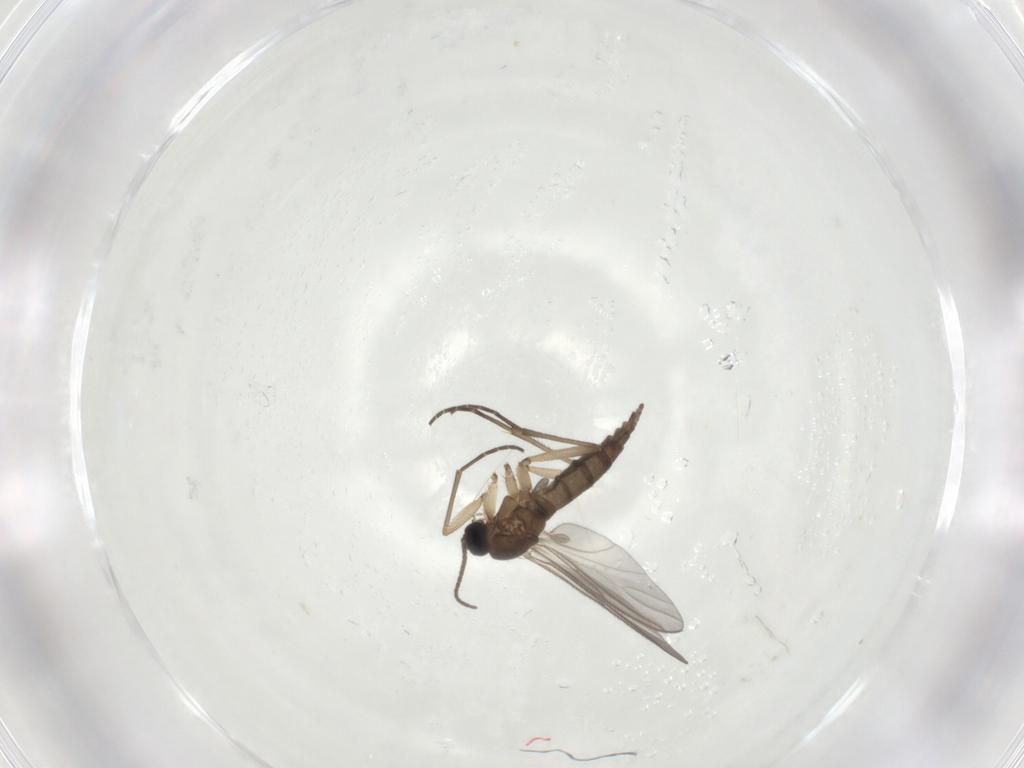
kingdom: Animalia
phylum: Arthropoda
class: Insecta
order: Diptera
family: Sciaridae
